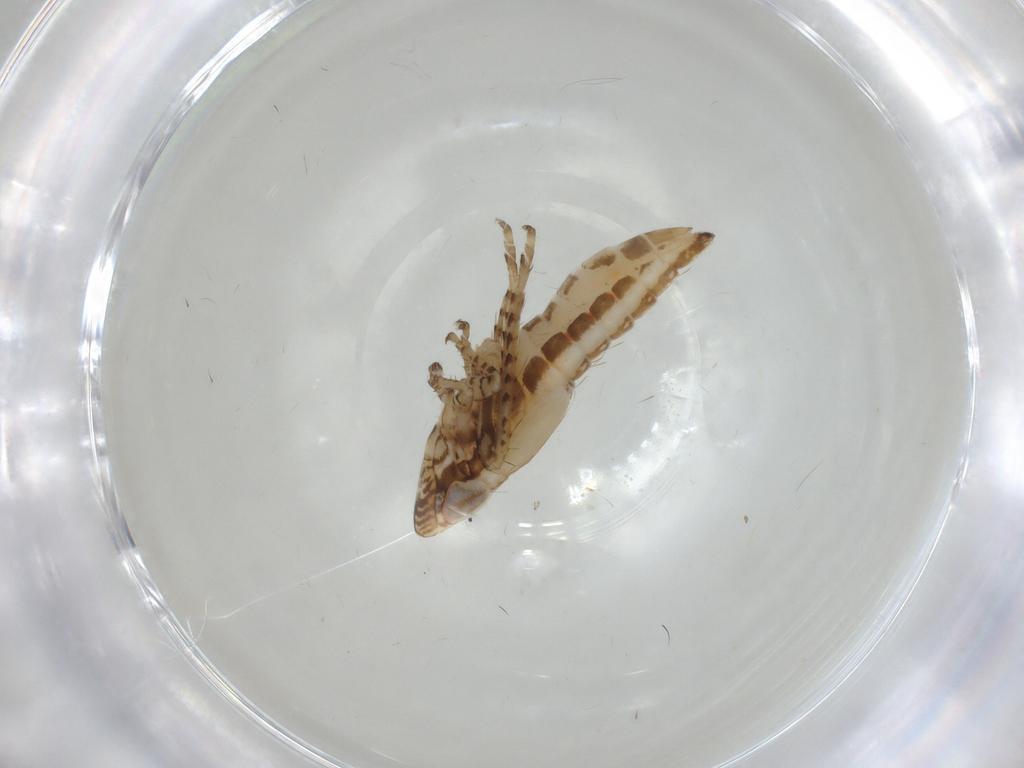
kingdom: Animalia
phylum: Arthropoda
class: Insecta
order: Hemiptera
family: Cicadellidae
